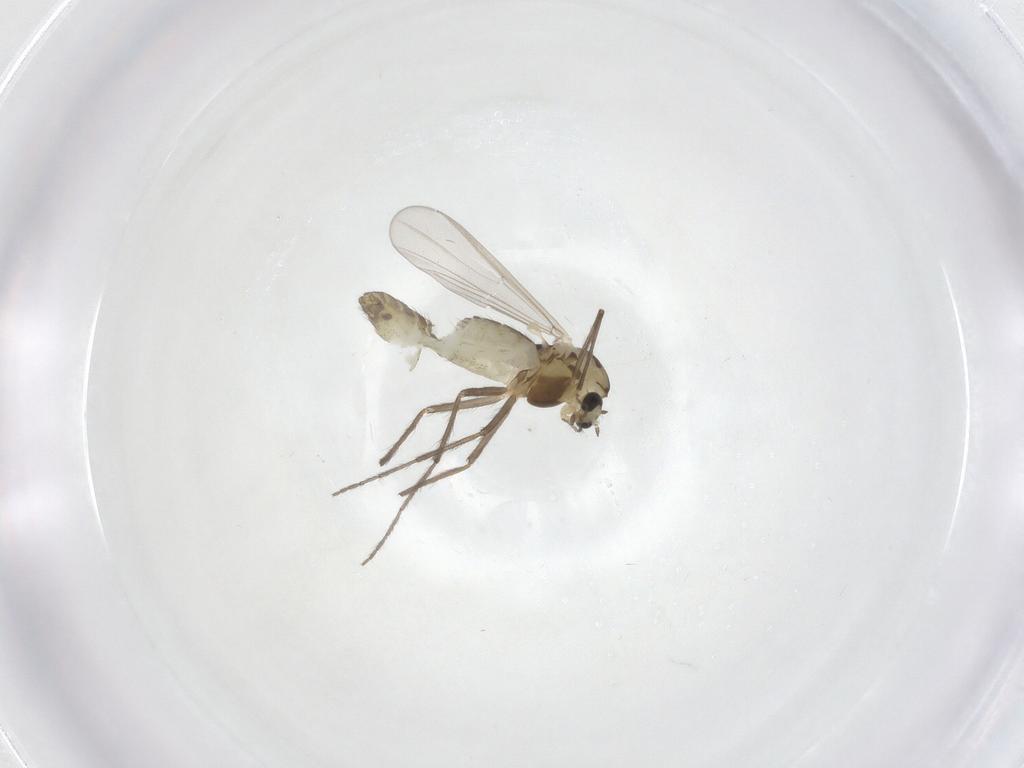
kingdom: Animalia
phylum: Arthropoda
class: Insecta
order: Diptera
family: Chironomidae
